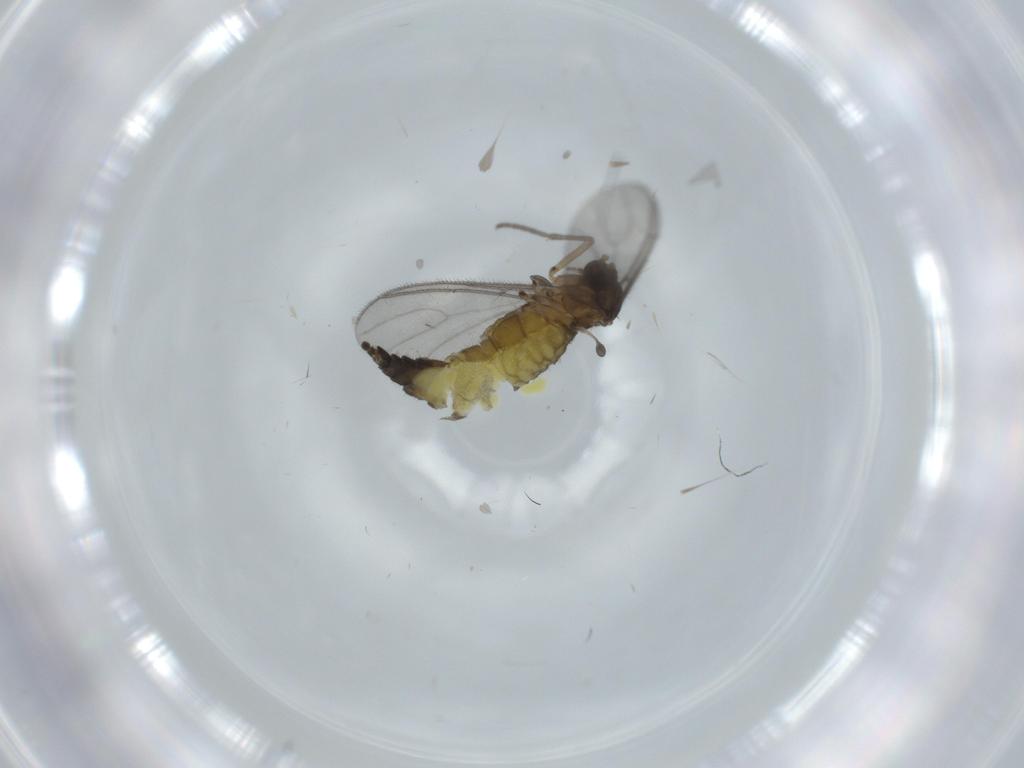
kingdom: Animalia
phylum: Arthropoda
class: Insecta
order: Diptera
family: Sciaridae
